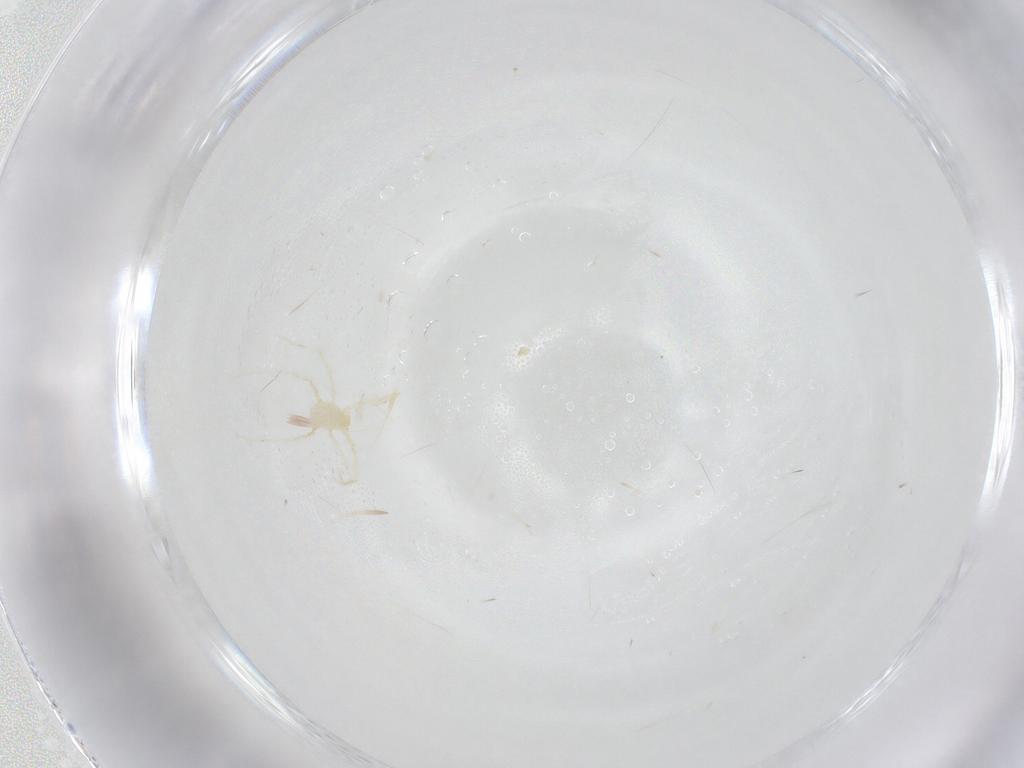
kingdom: Animalia
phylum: Arthropoda
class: Arachnida
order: Trombidiformes
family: Erythraeidae
